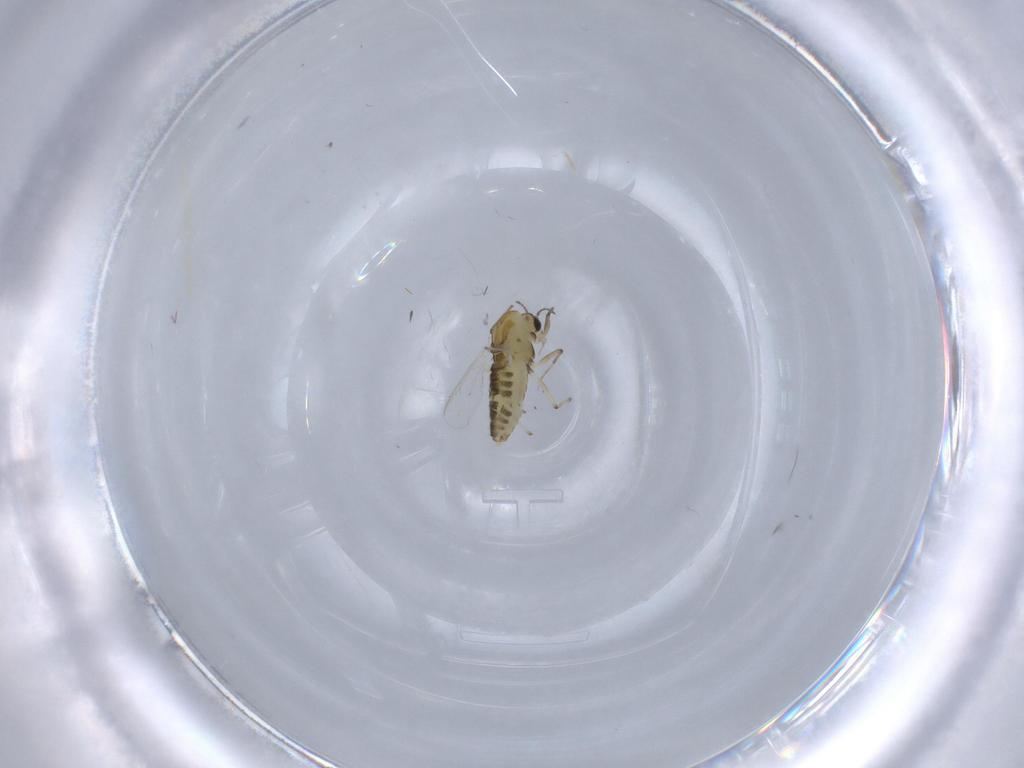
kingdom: Animalia
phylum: Arthropoda
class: Insecta
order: Diptera
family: Chironomidae
